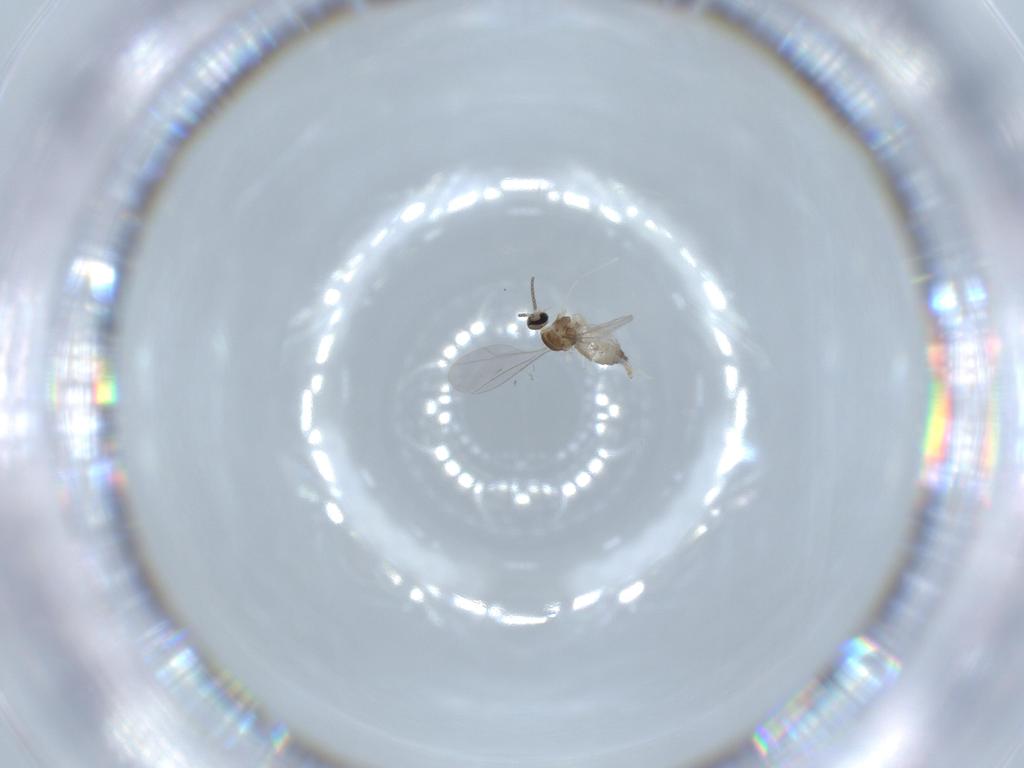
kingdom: Animalia
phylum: Arthropoda
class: Insecta
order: Diptera
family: Cecidomyiidae
